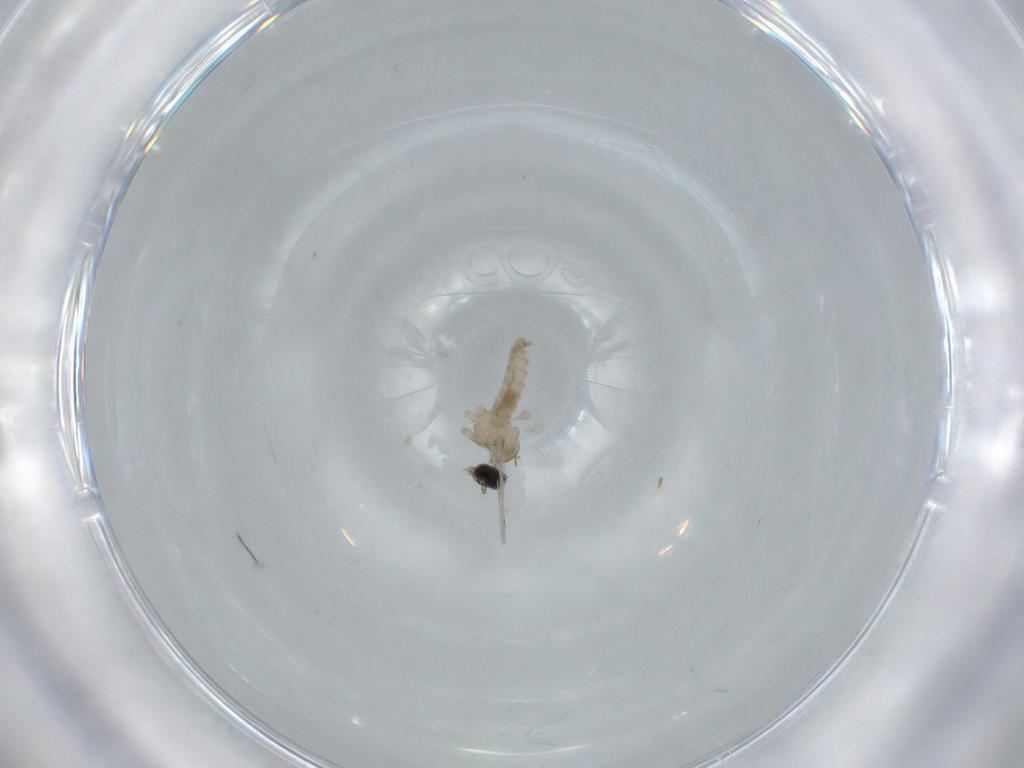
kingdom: Animalia
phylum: Arthropoda
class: Insecta
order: Diptera
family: Cecidomyiidae
